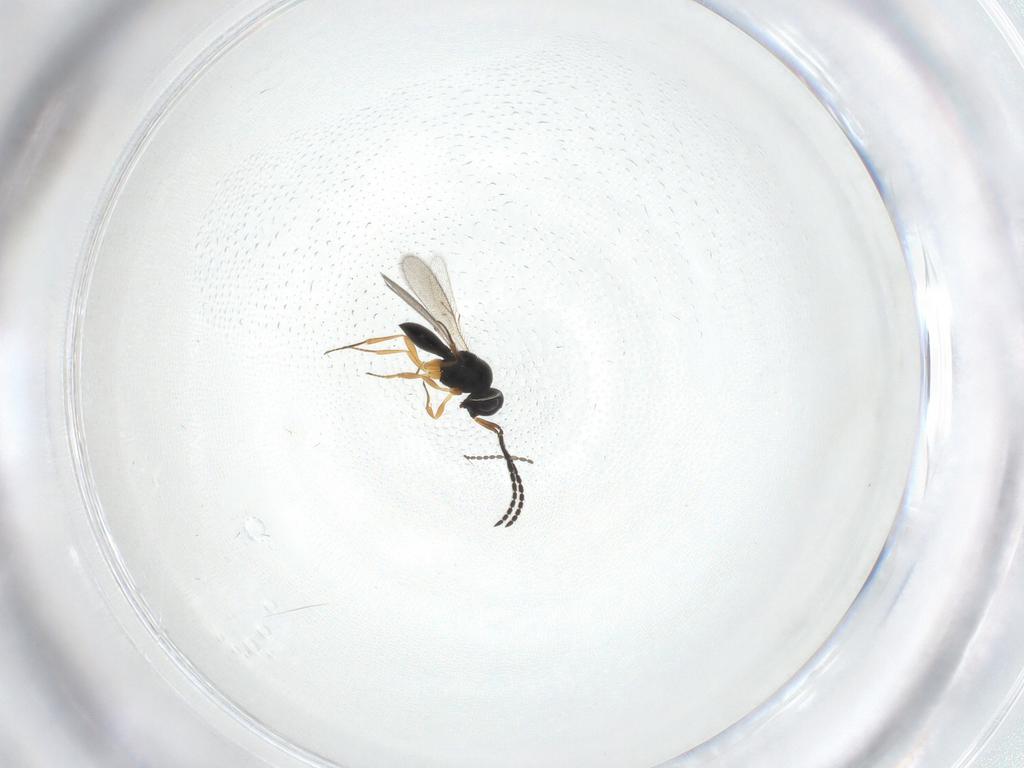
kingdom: Animalia
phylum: Arthropoda
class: Insecta
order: Hymenoptera
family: Scelionidae
